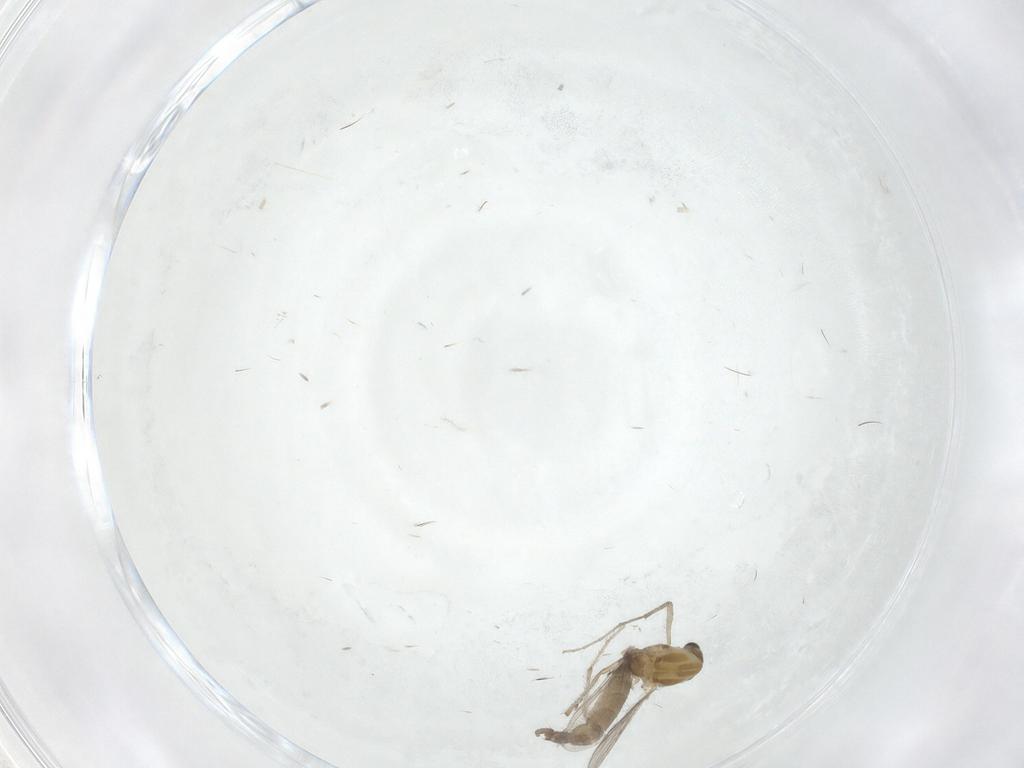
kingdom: Animalia
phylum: Arthropoda
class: Insecta
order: Diptera
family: Chironomidae
